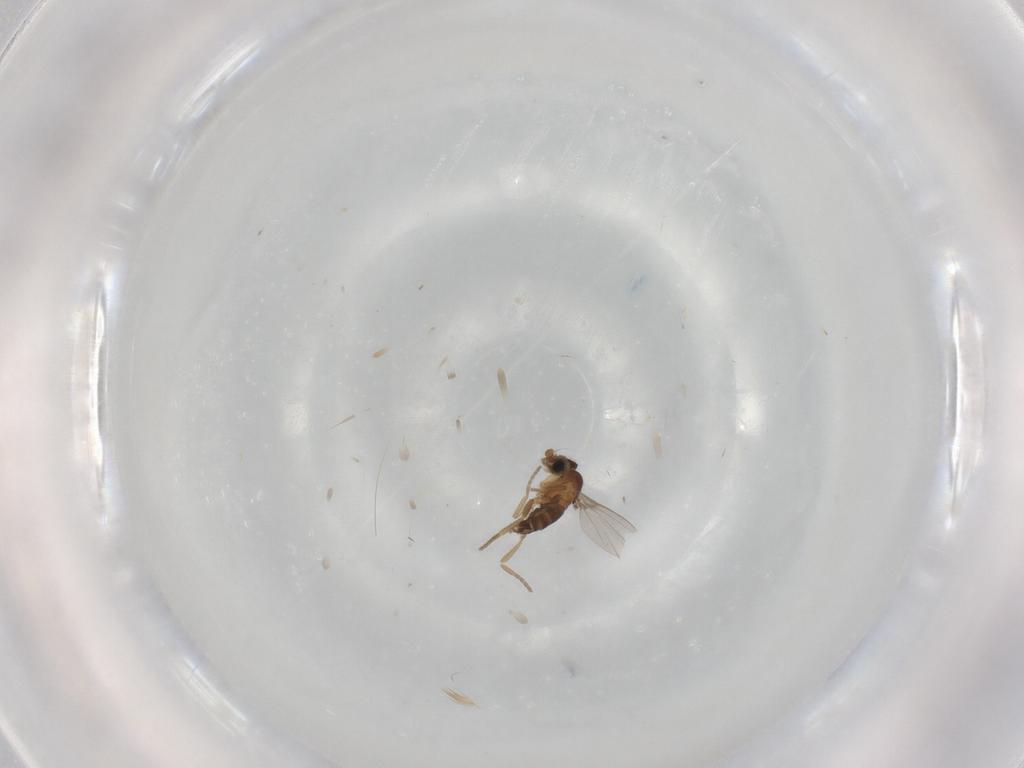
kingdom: Animalia
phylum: Arthropoda
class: Insecta
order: Diptera
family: Phoridae
